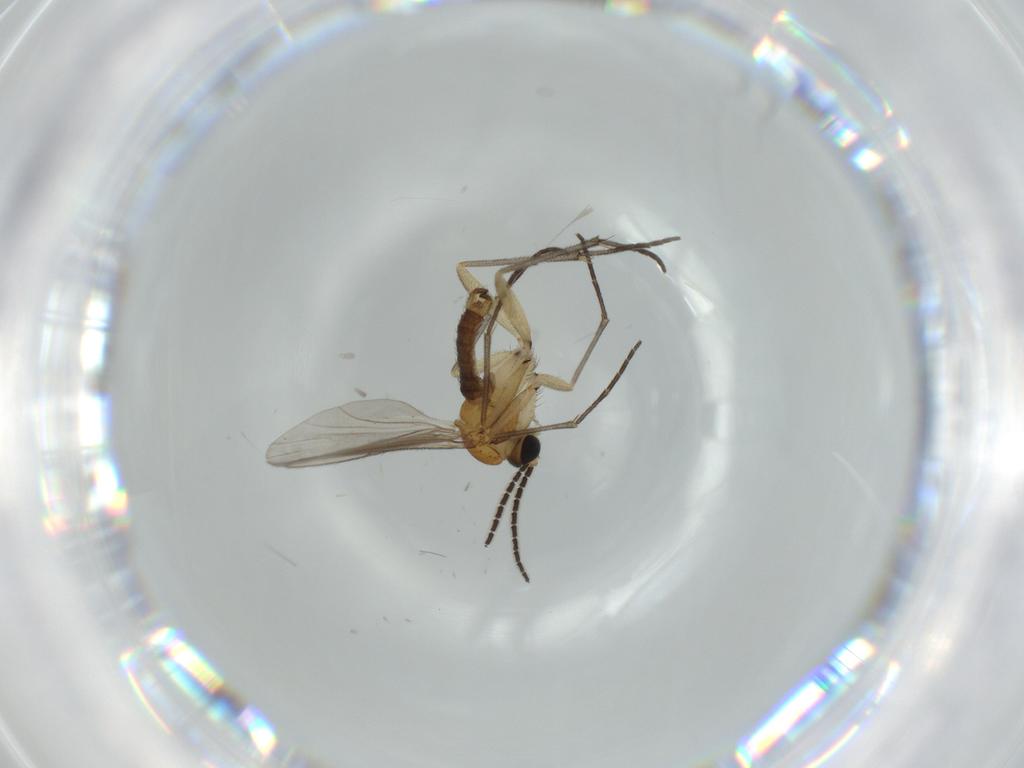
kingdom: Animalia
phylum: Arthropoda
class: Insecta
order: Diptera
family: Sciaridae
